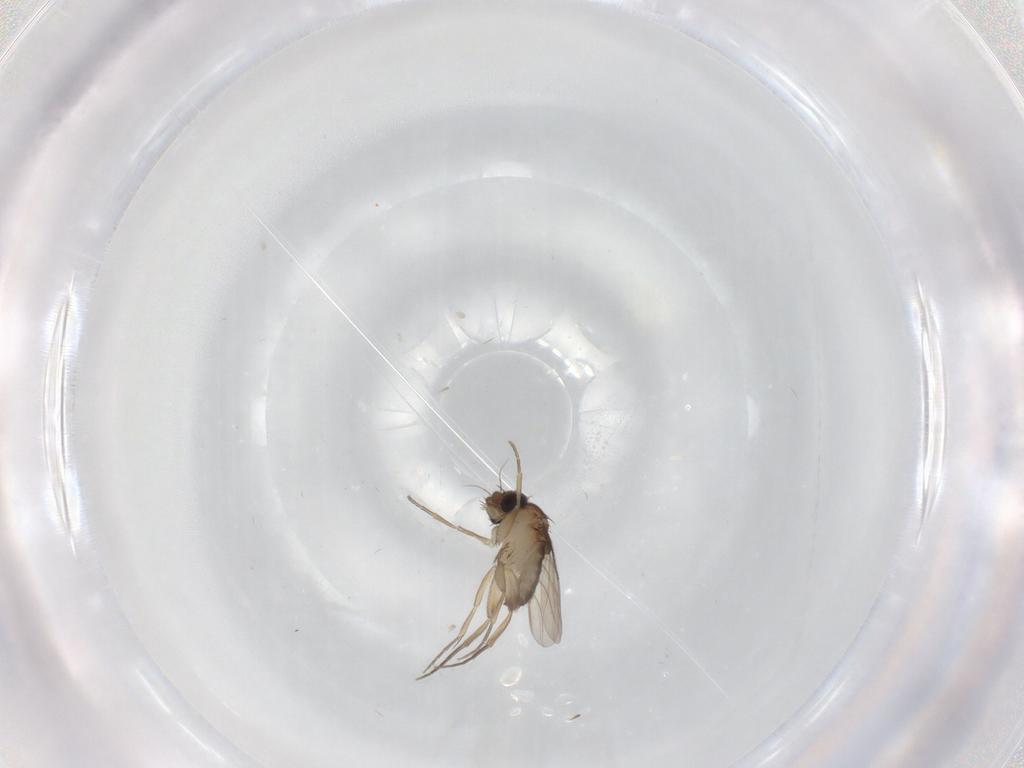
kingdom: Animalia
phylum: Arthropoda
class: Insecta
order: Diptera
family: Phoridae
